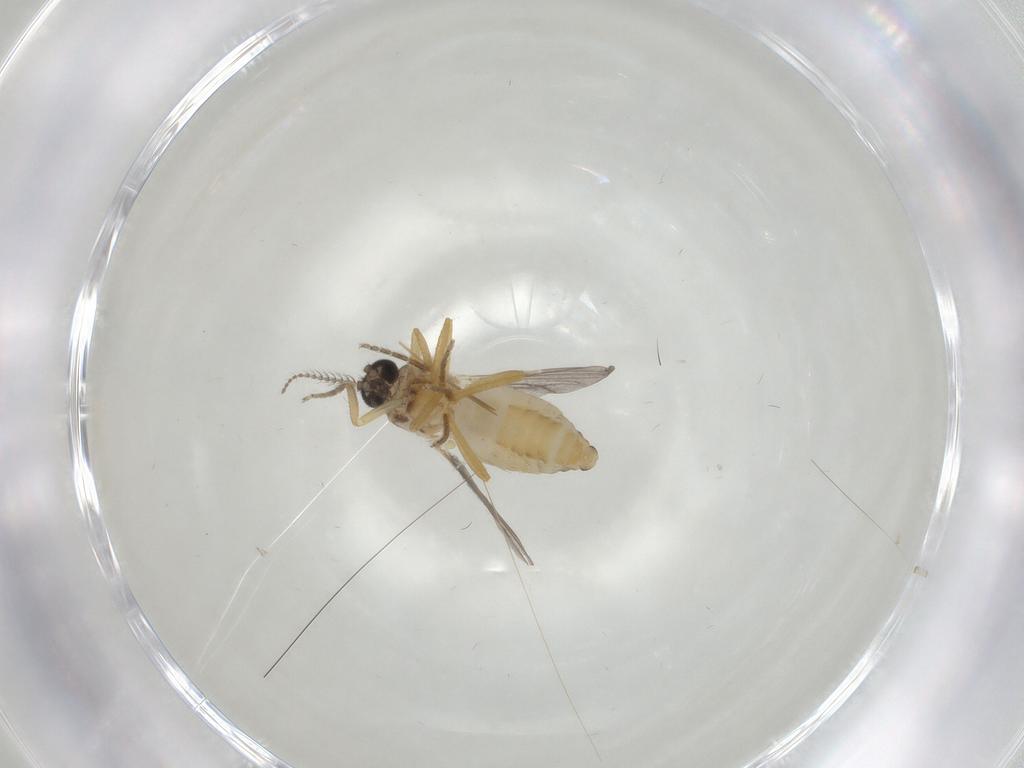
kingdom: Animalia
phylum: Arthropoda
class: Insecta
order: Diptera
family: Ceratopogonidae
